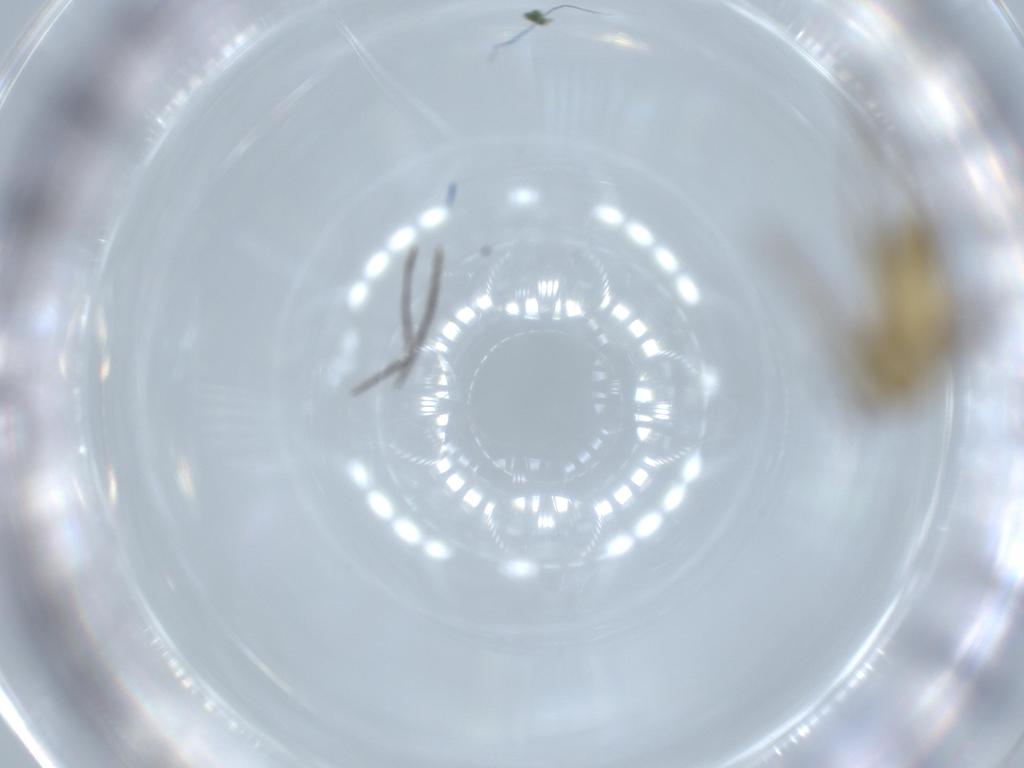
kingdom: Animalia
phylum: Arthropoda
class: Insecta
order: Diptera
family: Chironomidae
